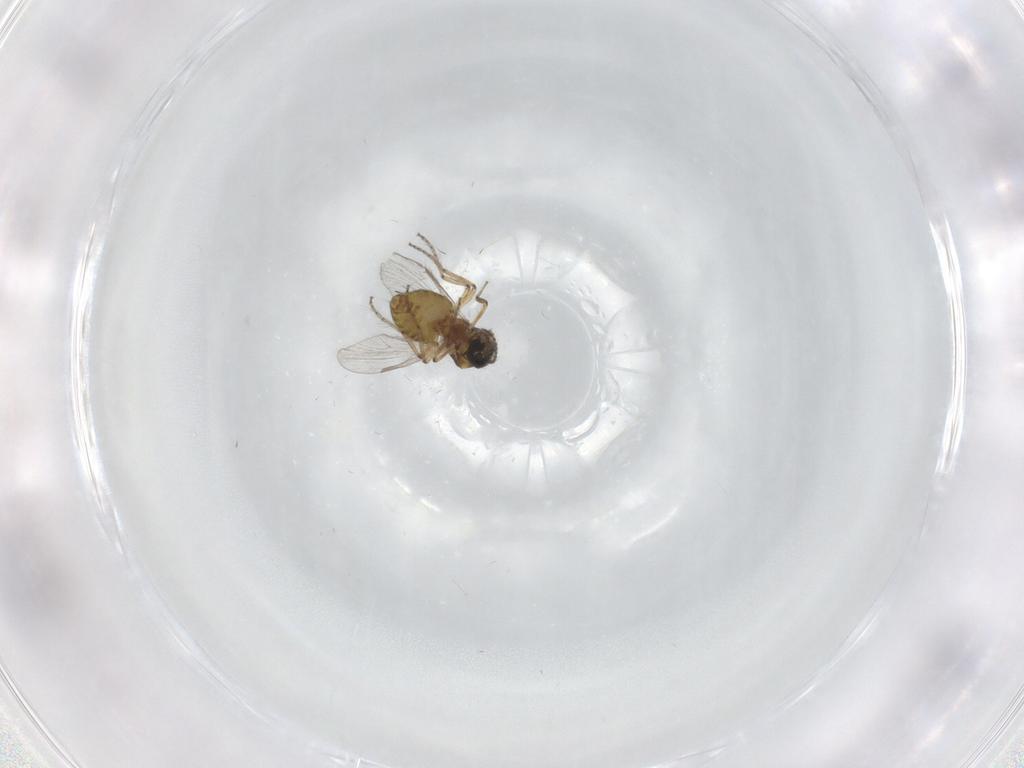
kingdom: Animalia
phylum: Arthropoda
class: Insecta
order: Diptera
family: Ceratopogonidae
